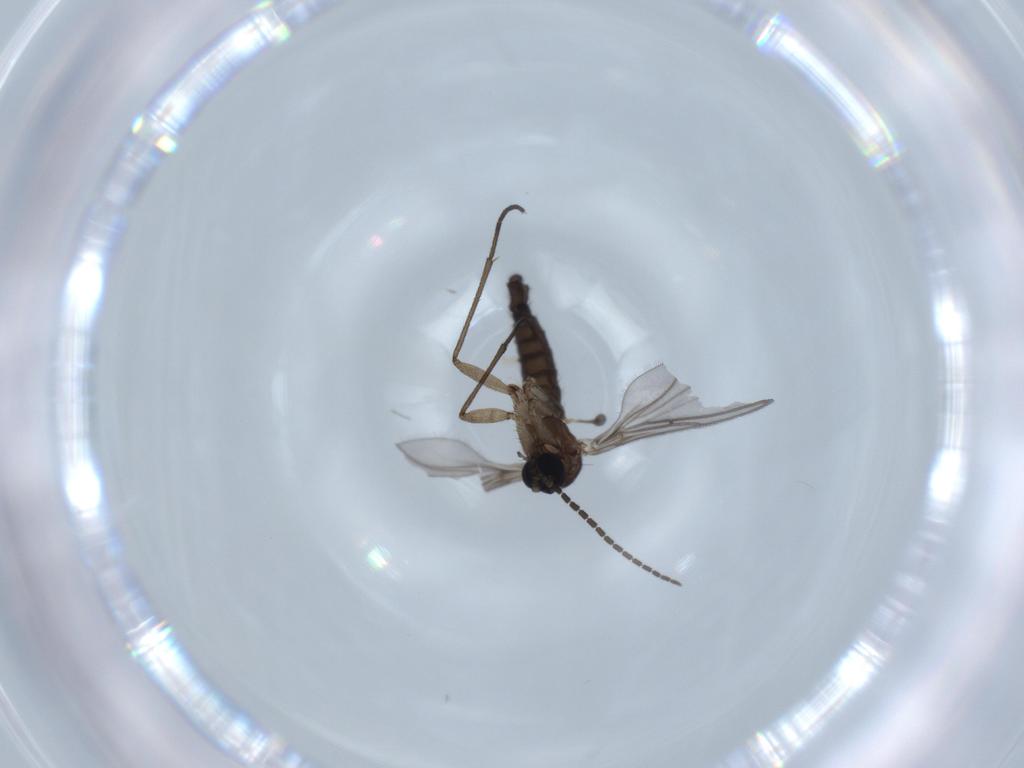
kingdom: Animalia
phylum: Arthropoda
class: Insecta
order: Diptera
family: Sciaridae
